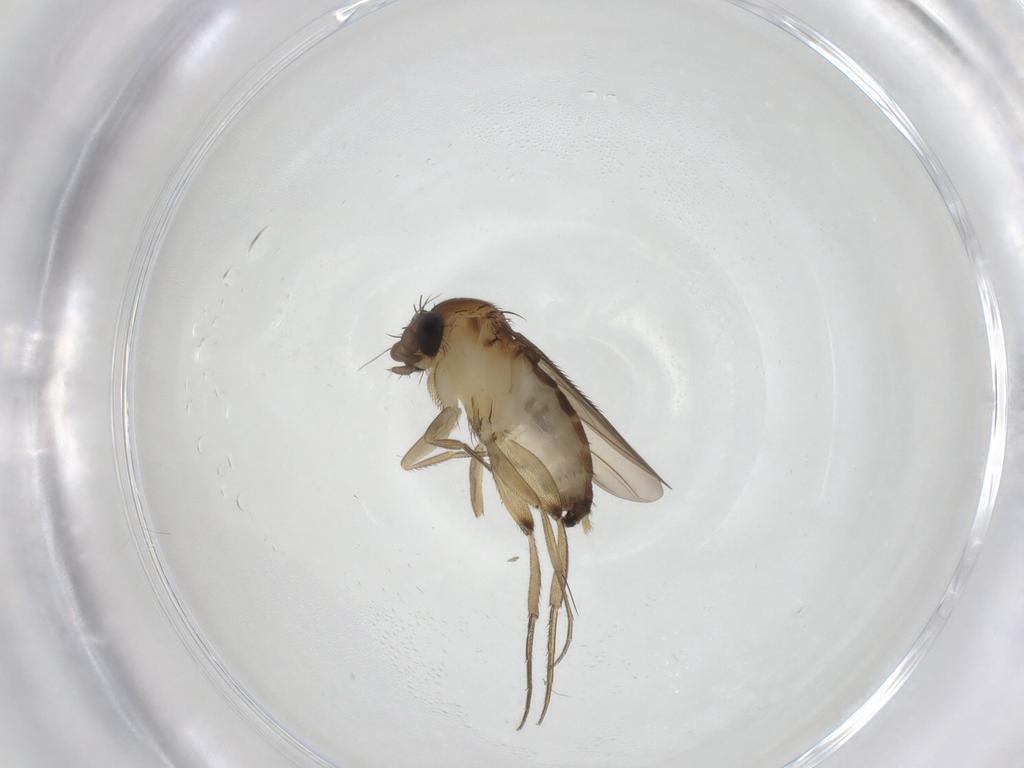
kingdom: Animalia
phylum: Arthropoda
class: Insecta
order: Diptera
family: Phoridae
